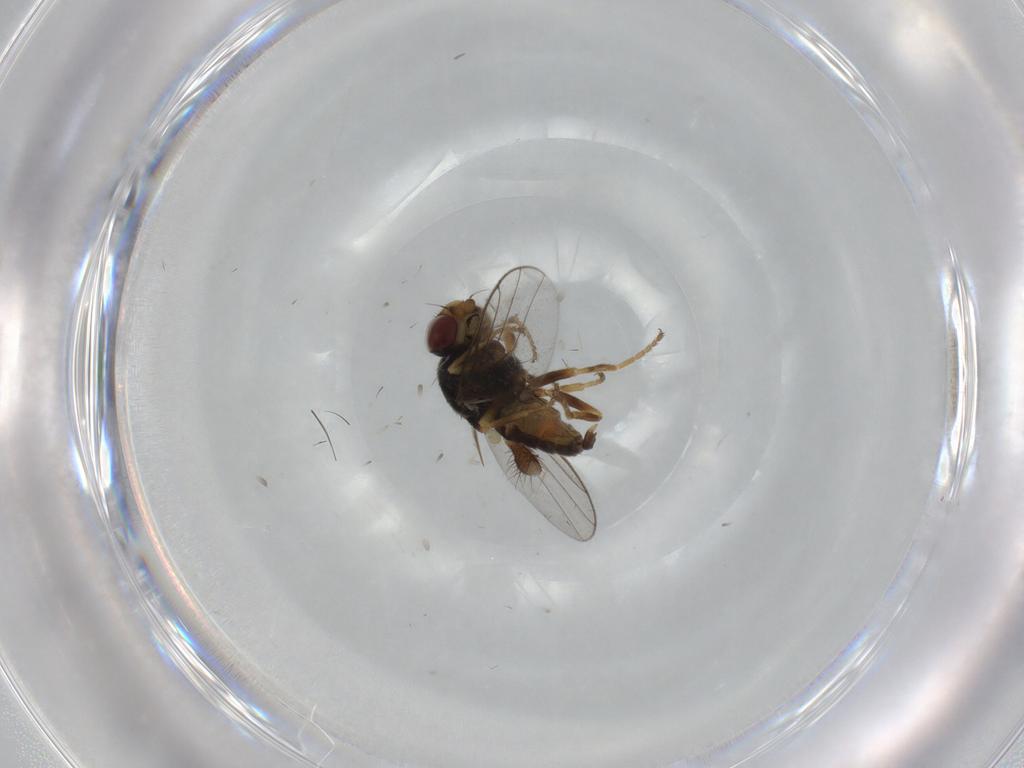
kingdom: Animalia
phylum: Arthropoda
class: Insecta
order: Diptera
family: Chloropidae
